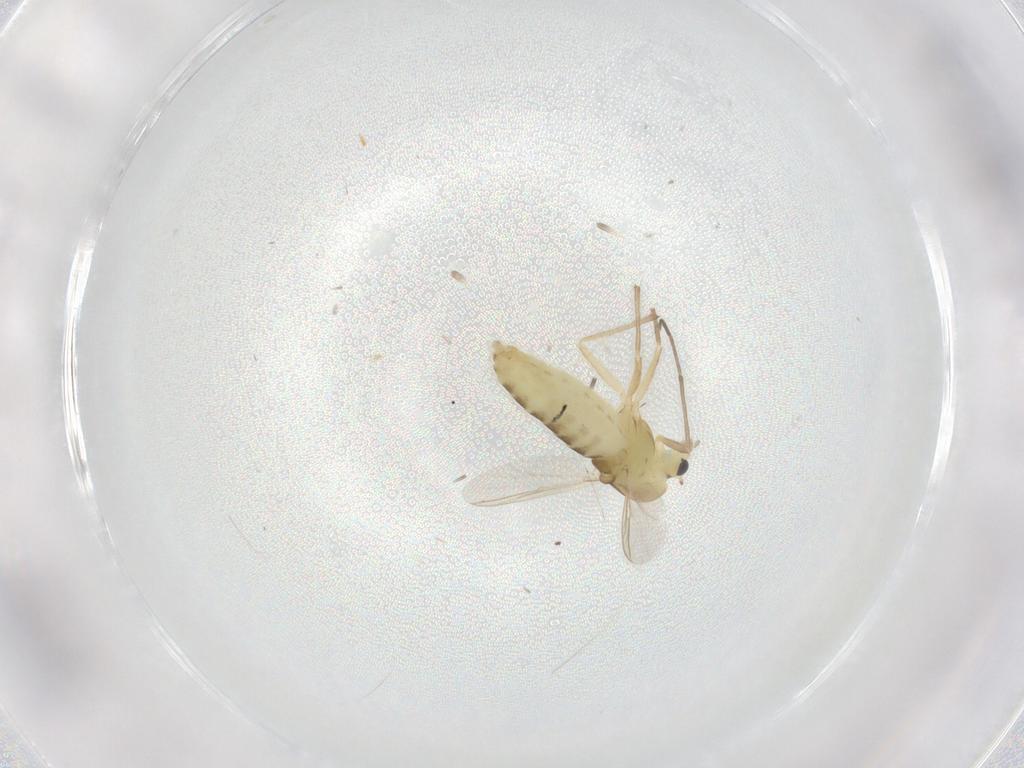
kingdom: Animalia
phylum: Arthropoda
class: Insecta
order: Diptera
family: Chironomidae
